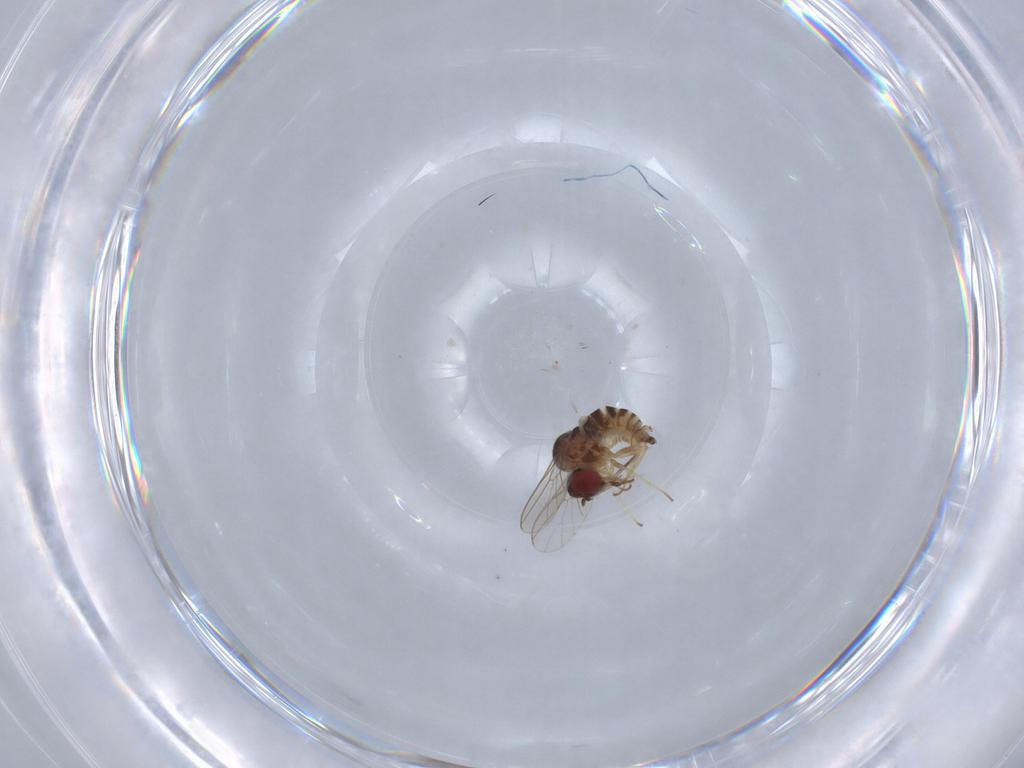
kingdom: Animalia
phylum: Arthropoda
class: Insecta
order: Diptera
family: Mythicomyiidae
